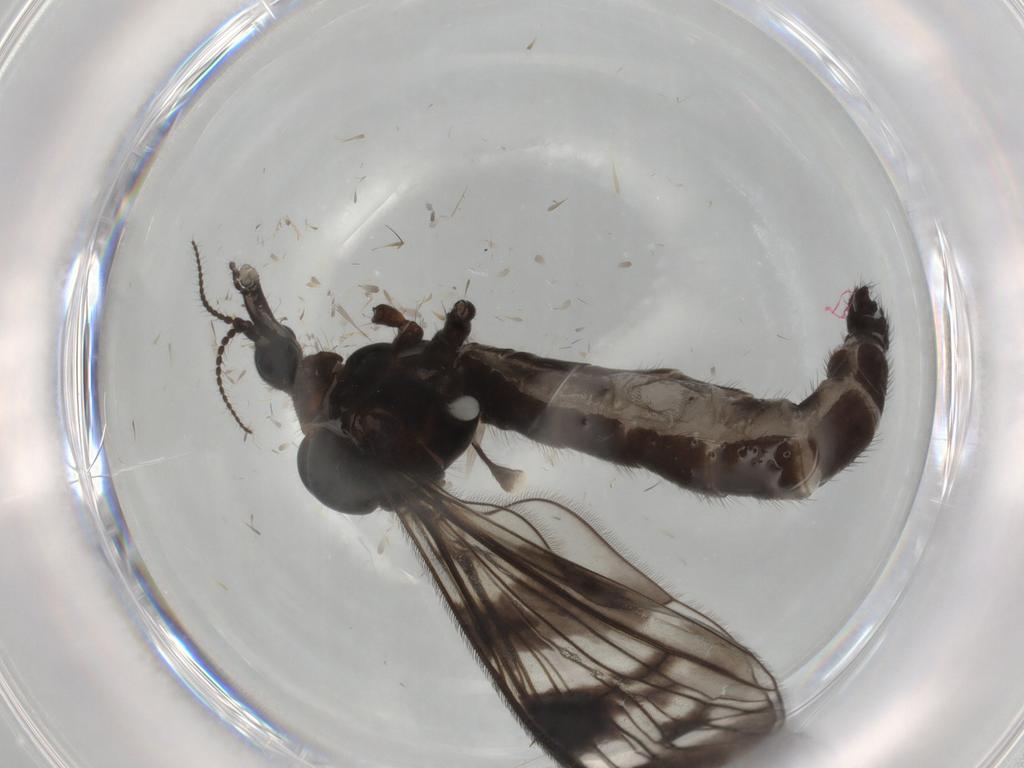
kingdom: Animalia
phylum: Arthropoda
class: Insecta
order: Diptera
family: Limoniidae
